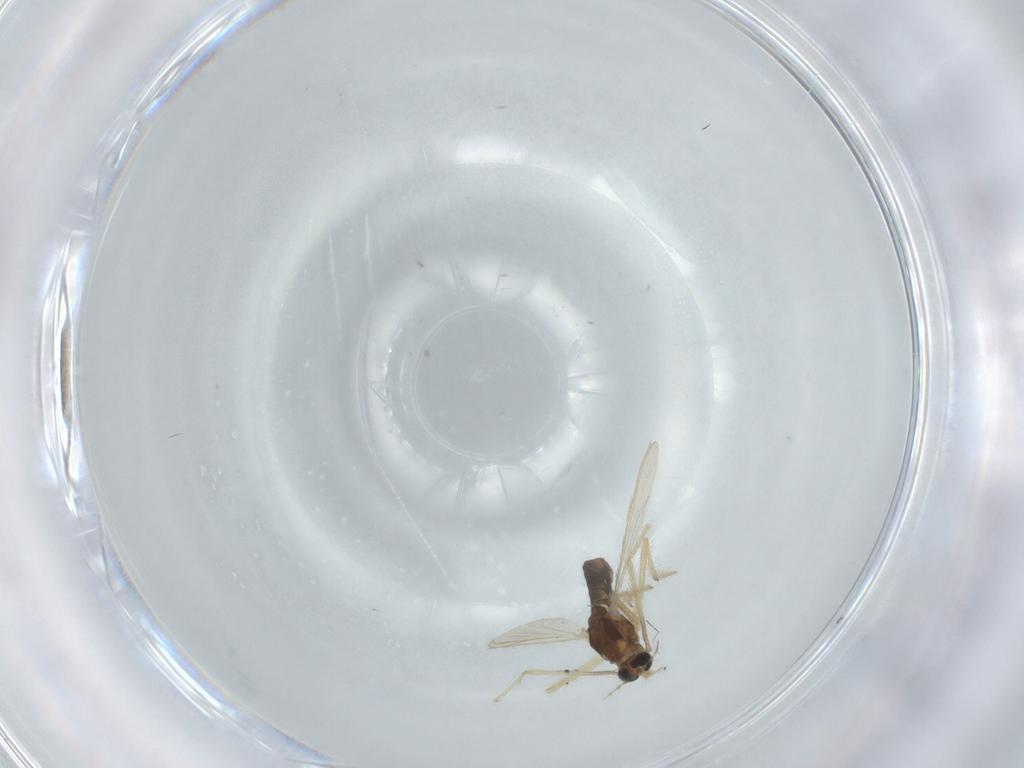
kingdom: Animalia
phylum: Arthropoda
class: Insecta
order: Diptera
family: Chironomidae
